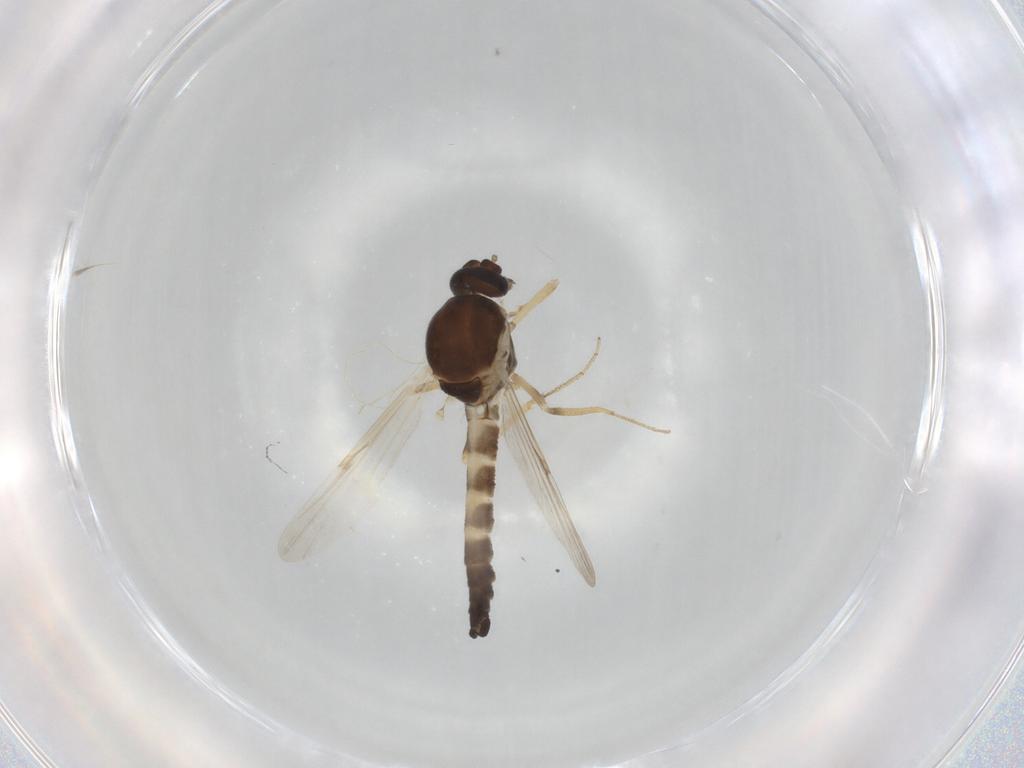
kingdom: Animalia
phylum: Arthropoda
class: Insecta
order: Diptera
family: Ceratopogonidae
